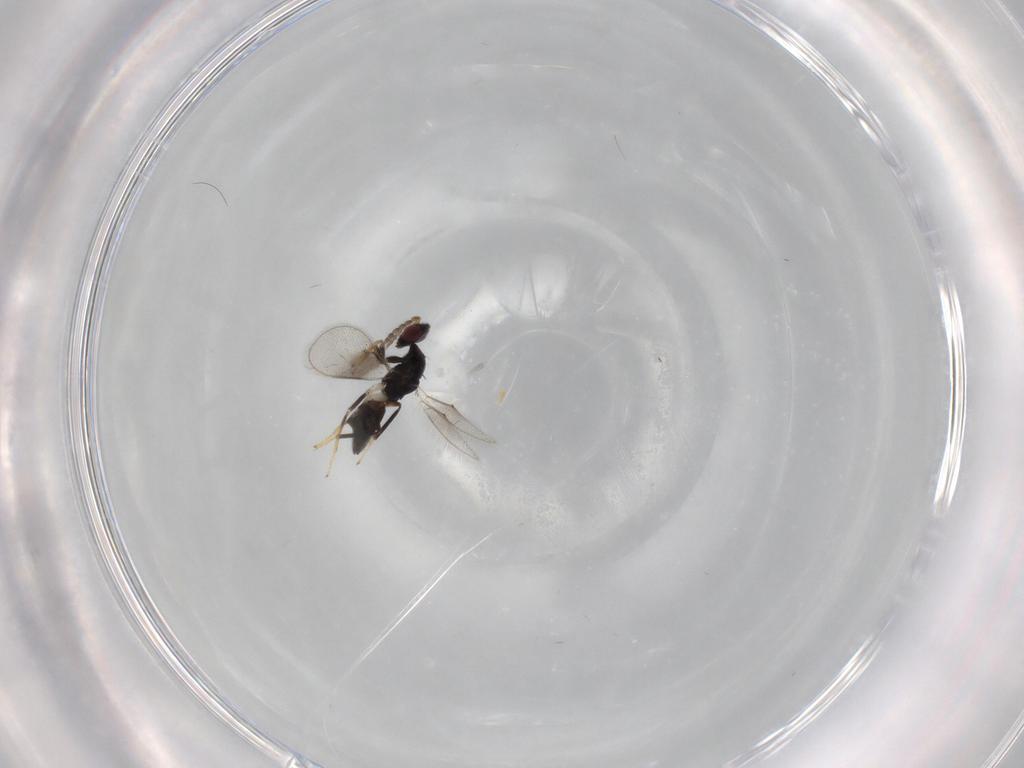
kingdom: Animalia
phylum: Arthropoda
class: Insecta
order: Hymenoptera
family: Eulophidae
